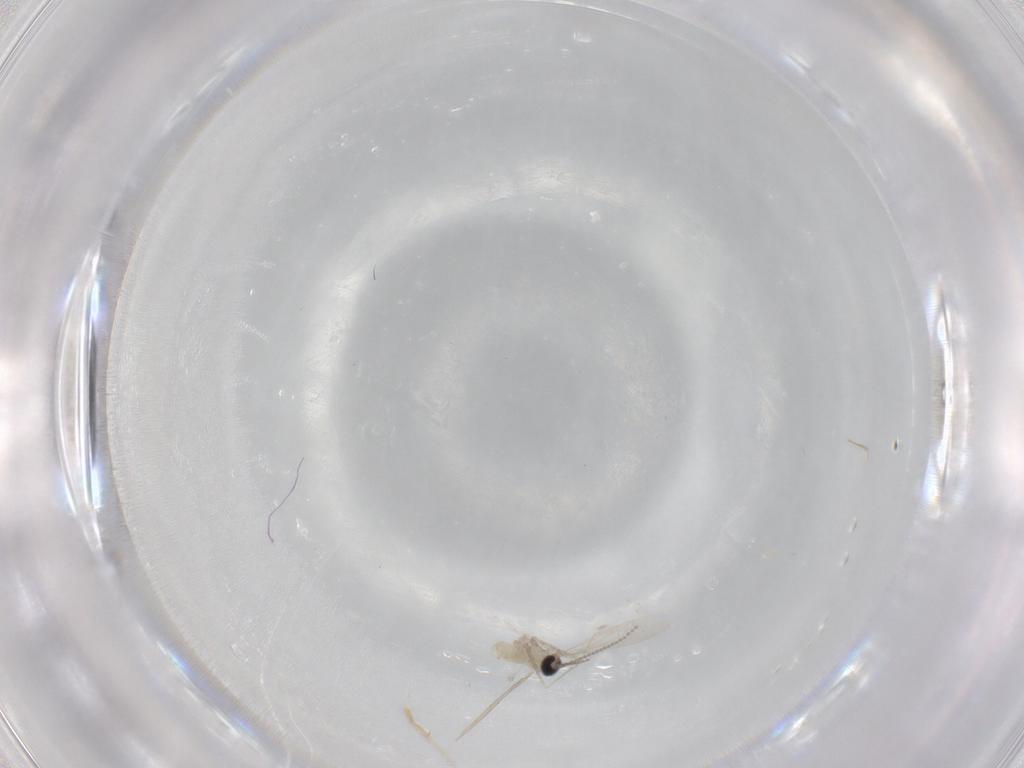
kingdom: Animalia
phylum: Arthropoda
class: Insecta
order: Diptera
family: Cecidomyiidae
